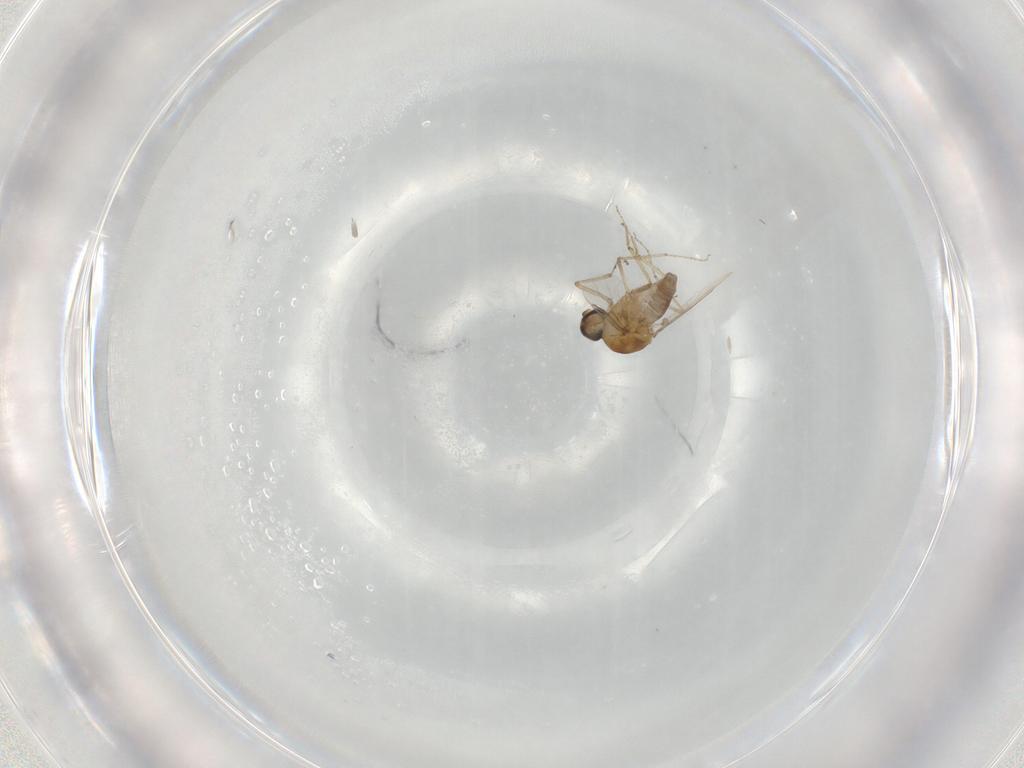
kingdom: Animalia
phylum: Arthropoda
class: Insecta
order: Diptera
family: Ceratopogonidae
